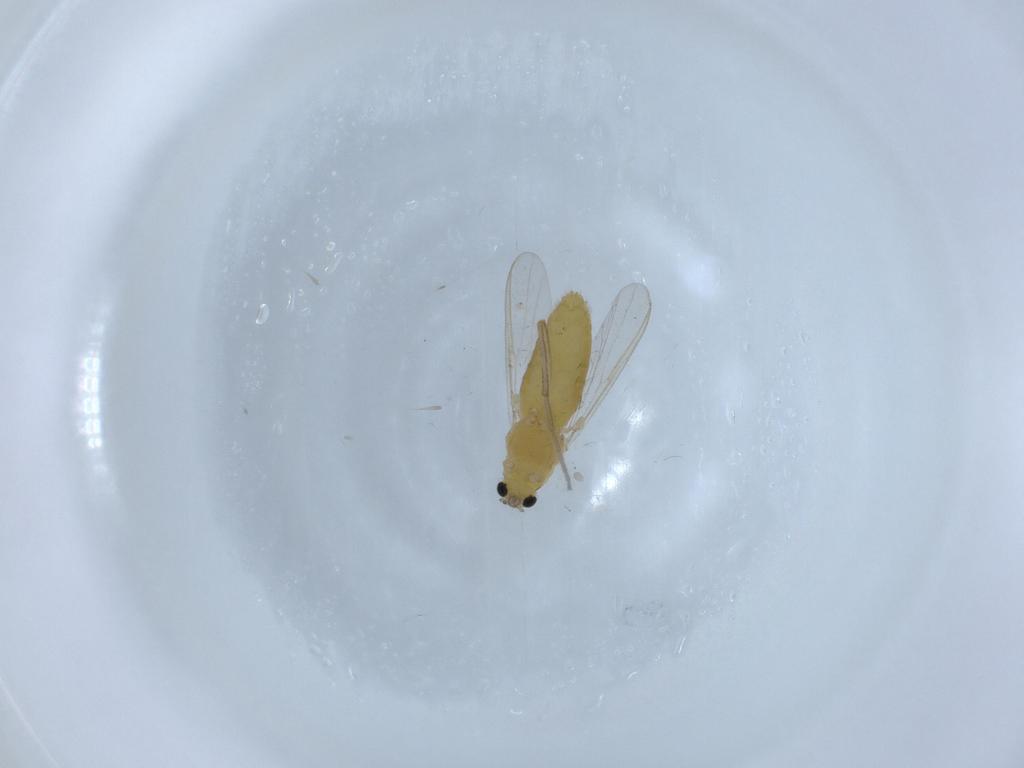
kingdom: Animalia
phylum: Arthropoda
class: Insecta
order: Diptera
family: Chironomidae
